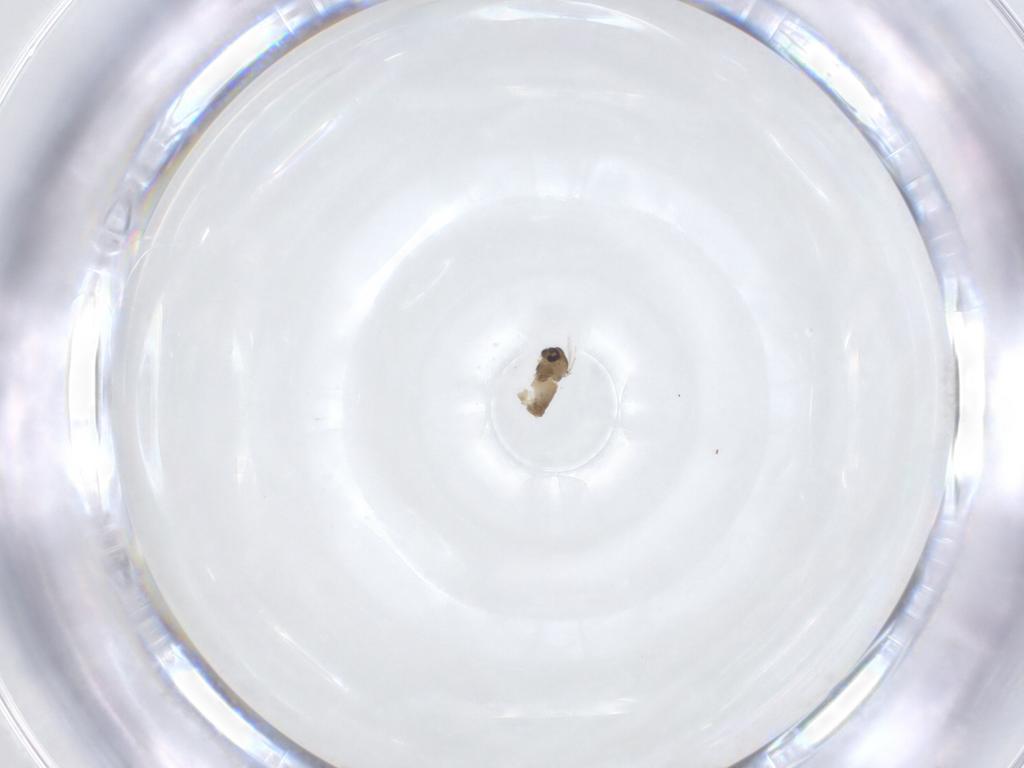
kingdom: Animalia
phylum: Arthropoda
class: Insecta
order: Diptera
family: Chironomidae
